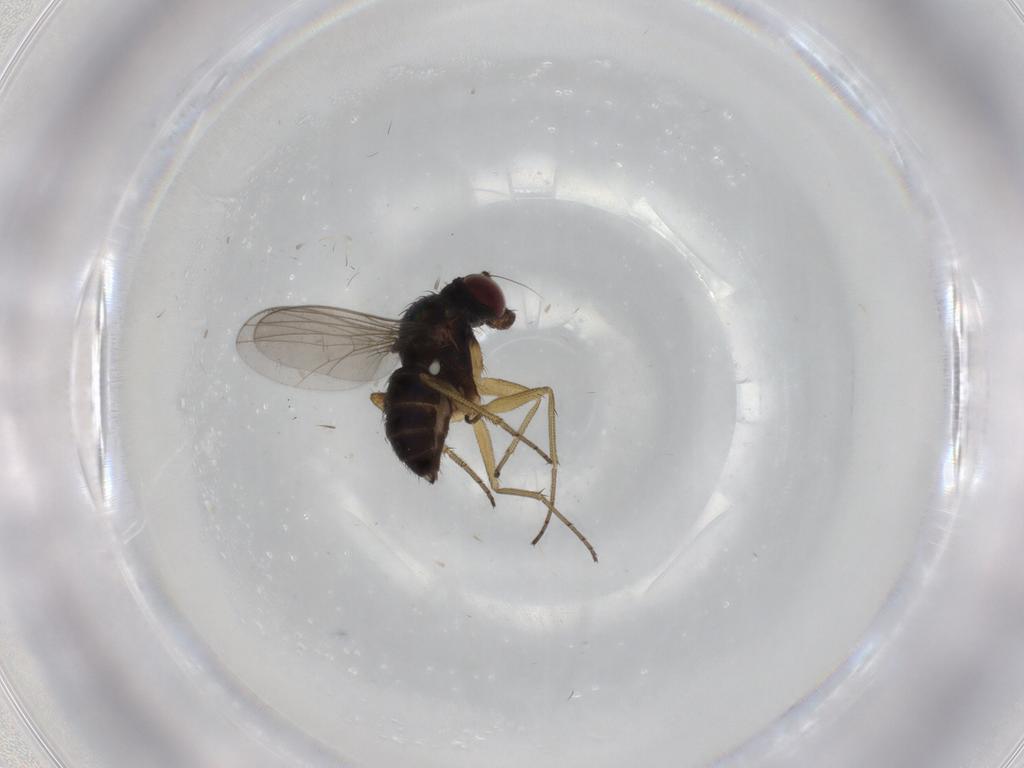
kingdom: Animalia
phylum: Arthropoda
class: Insecta
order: Diptera
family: Dolichopodidae
